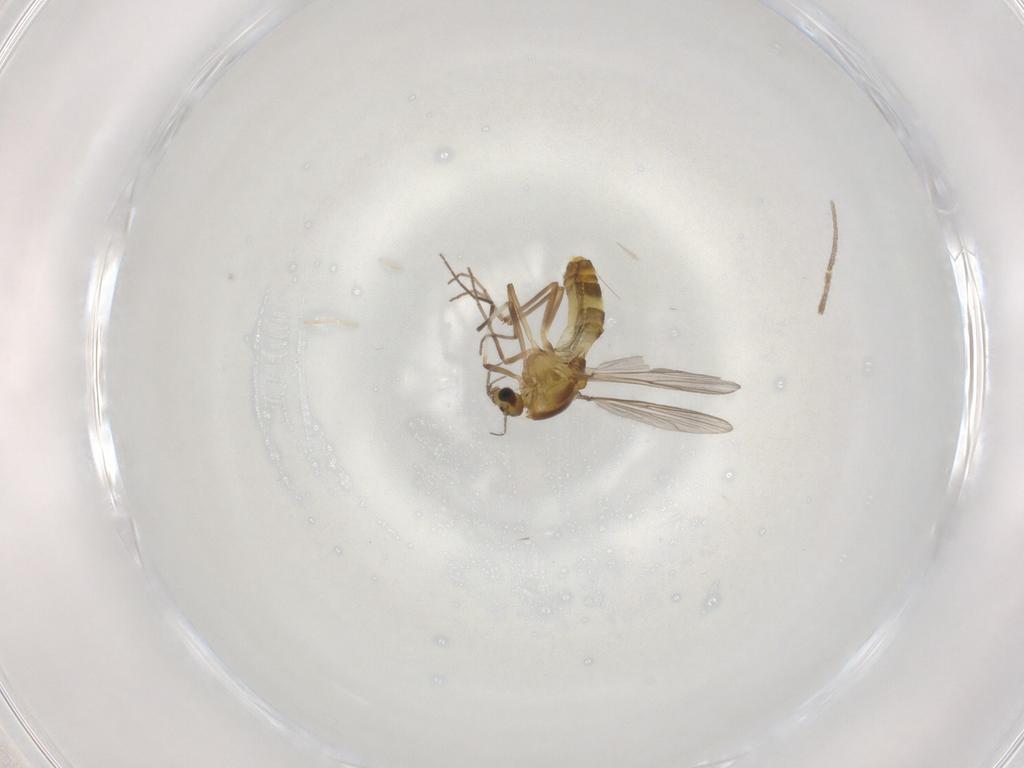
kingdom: Animalia
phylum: Arthropoda
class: Insecta
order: Diptera
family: Chironomidae
